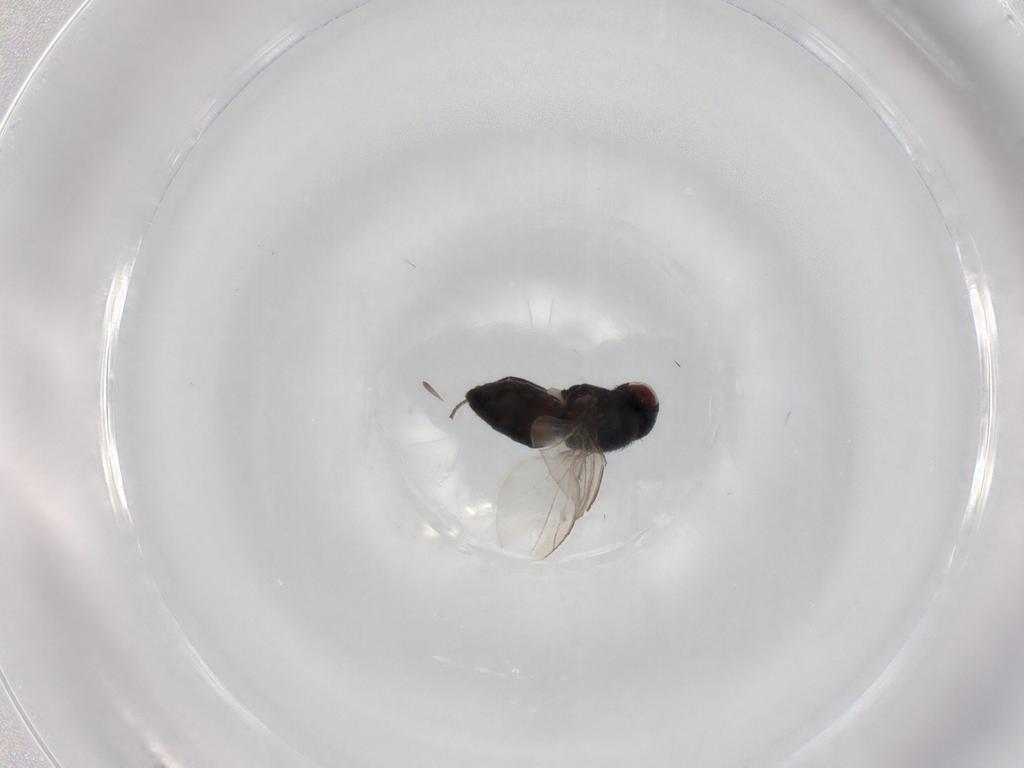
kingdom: Animalia
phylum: Arthropoda
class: Insecta
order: Diptera
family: Carnidae
